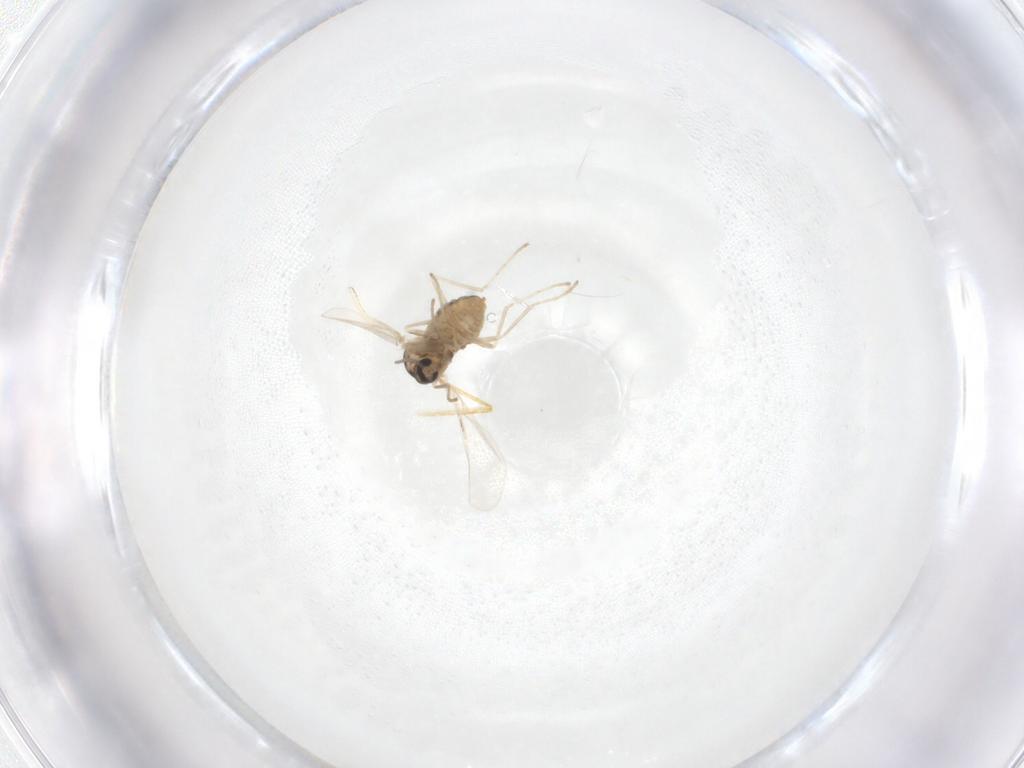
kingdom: Animalia
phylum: Arthropoda
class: Insecta
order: Diptera
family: Cecidomyiidae
